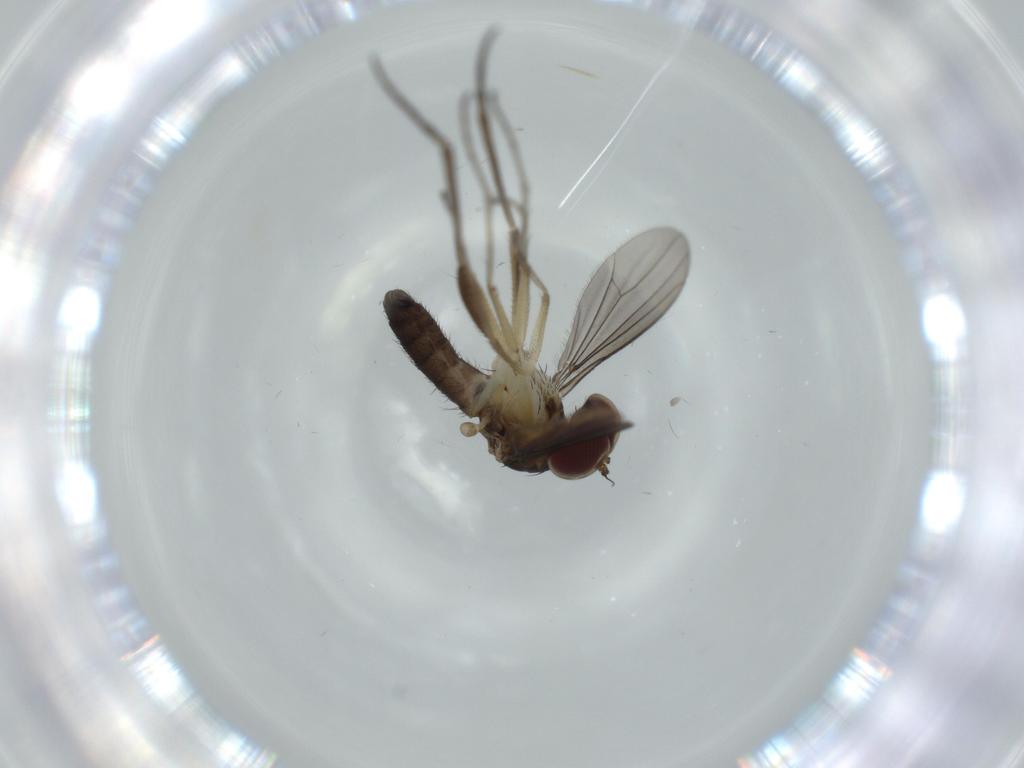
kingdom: Animalia
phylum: Arthropoda
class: Insecta
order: Diptera
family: Dolichopodidae
